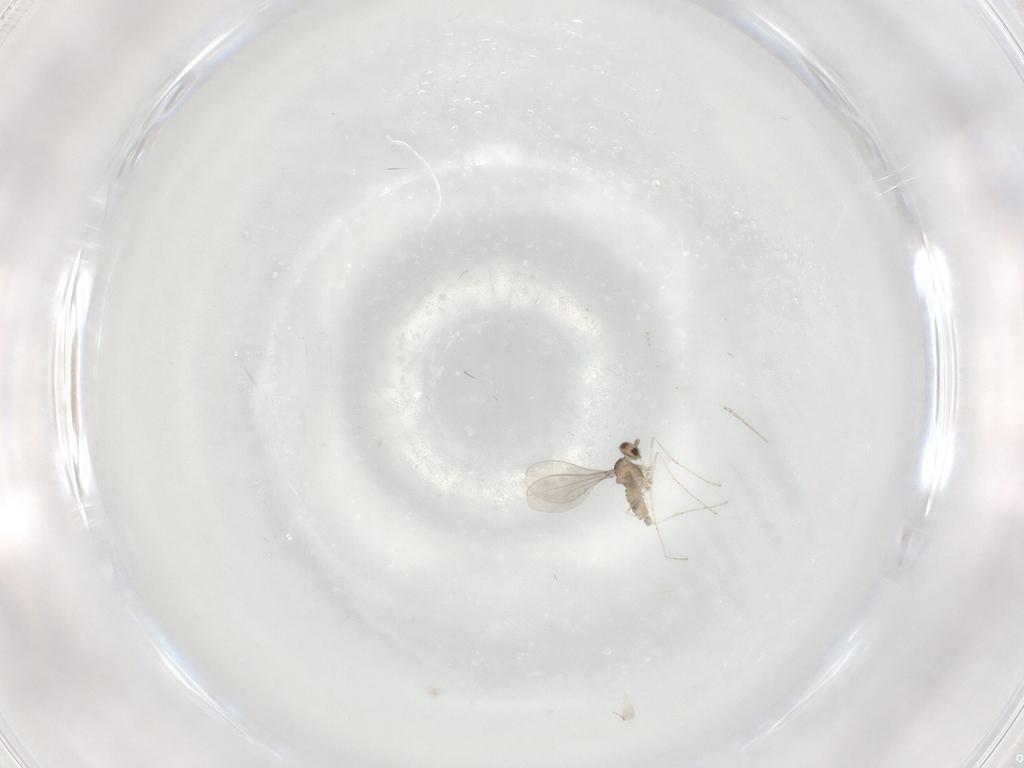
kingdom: Animalia
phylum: Arthropoda
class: Insecta
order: Diptera
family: Cecidomyiidae
